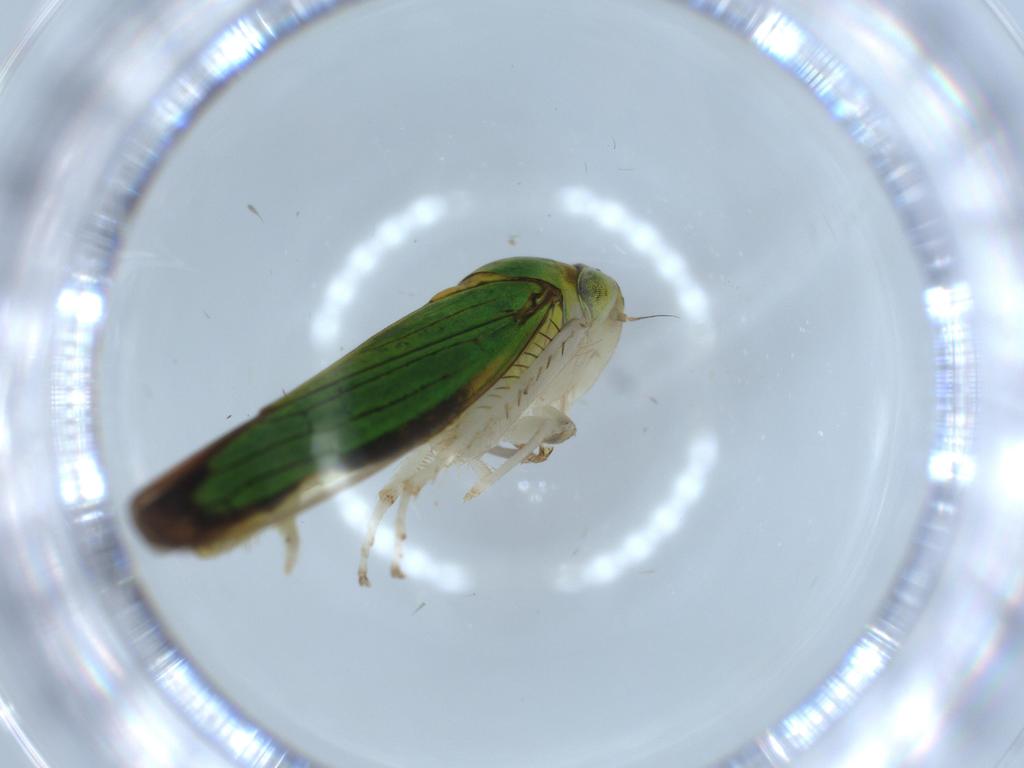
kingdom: Animalia
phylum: Arthropoda
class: Insecta
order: Hemiptera
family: Cicadellidae
